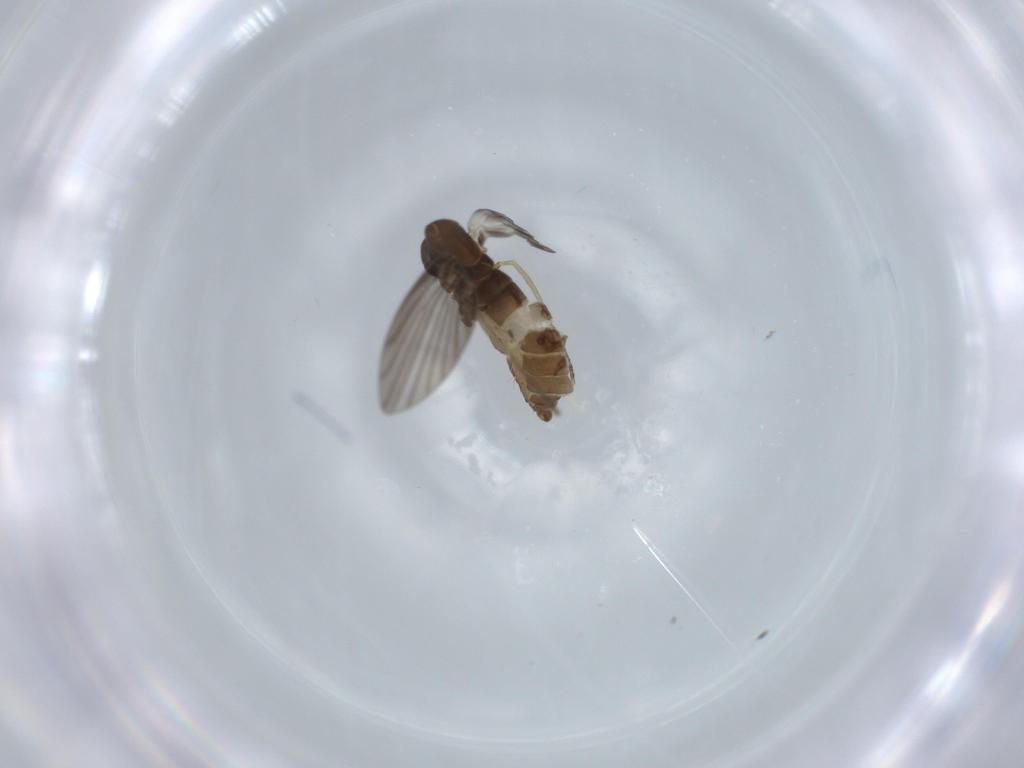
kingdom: Animalia
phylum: Arthropoda
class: Insecta
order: Diptera
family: Psychodidae
